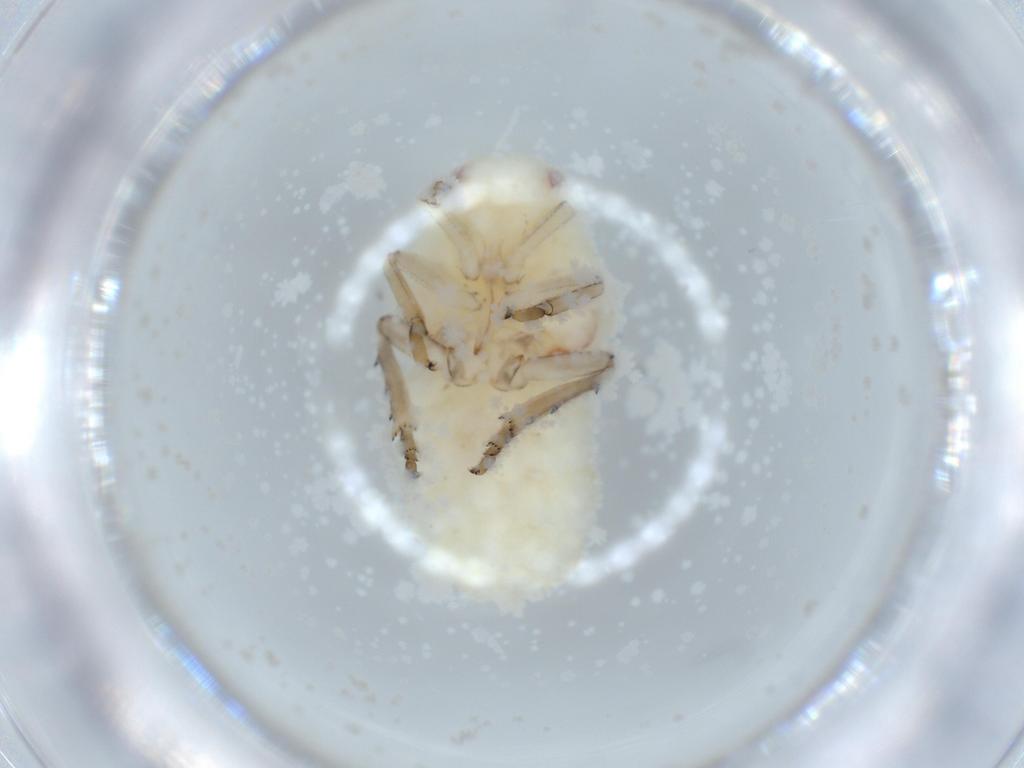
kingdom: Animalia
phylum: Arthropoda
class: Insecta
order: Hemiptera
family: Flatidae
